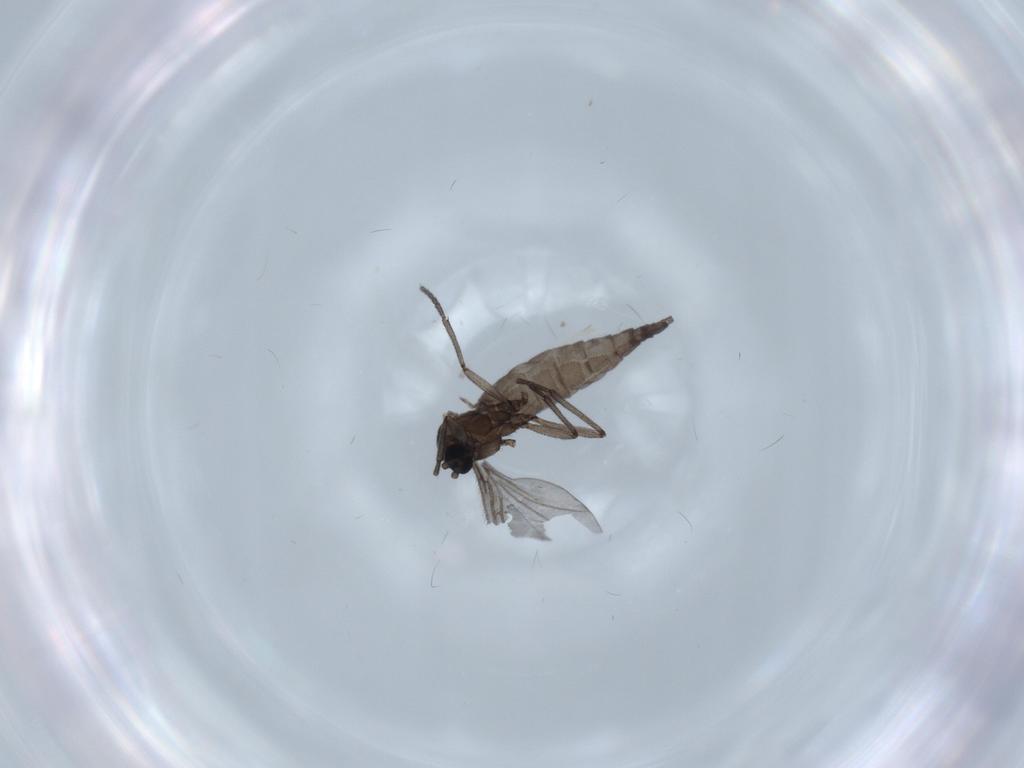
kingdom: Animalia
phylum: Arthropoda
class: Insecta
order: Diptera
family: Sciaridae
